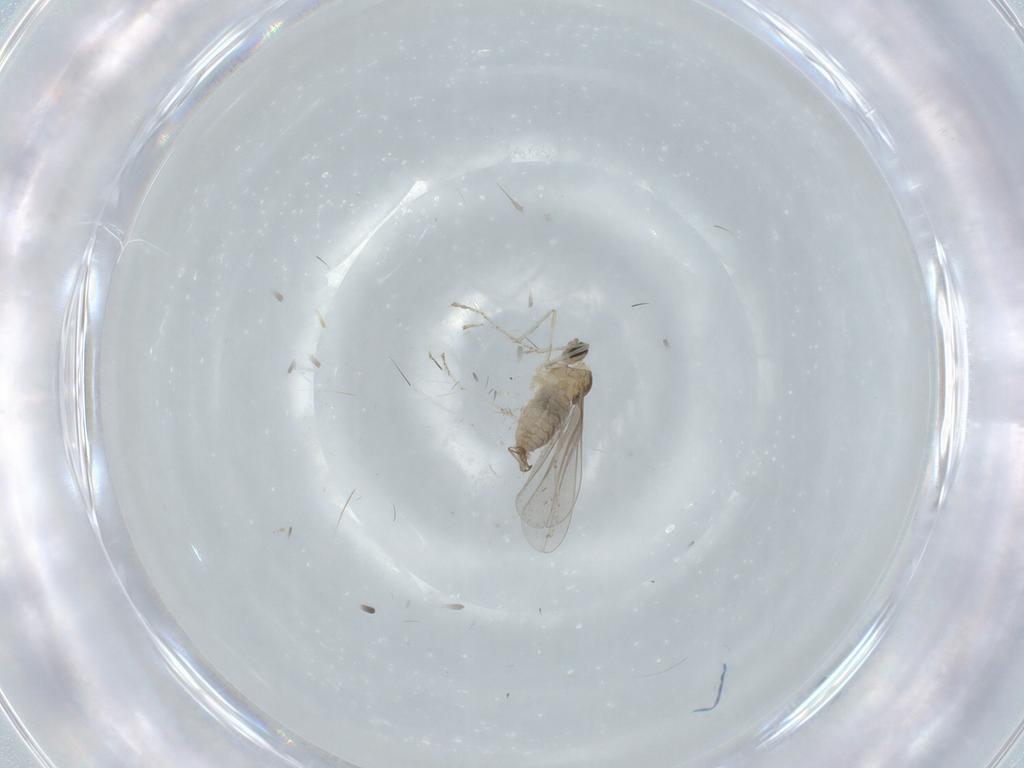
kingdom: Animalia
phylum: Arthropoda
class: Insecta
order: Diptera
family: Cecidomyiidae
